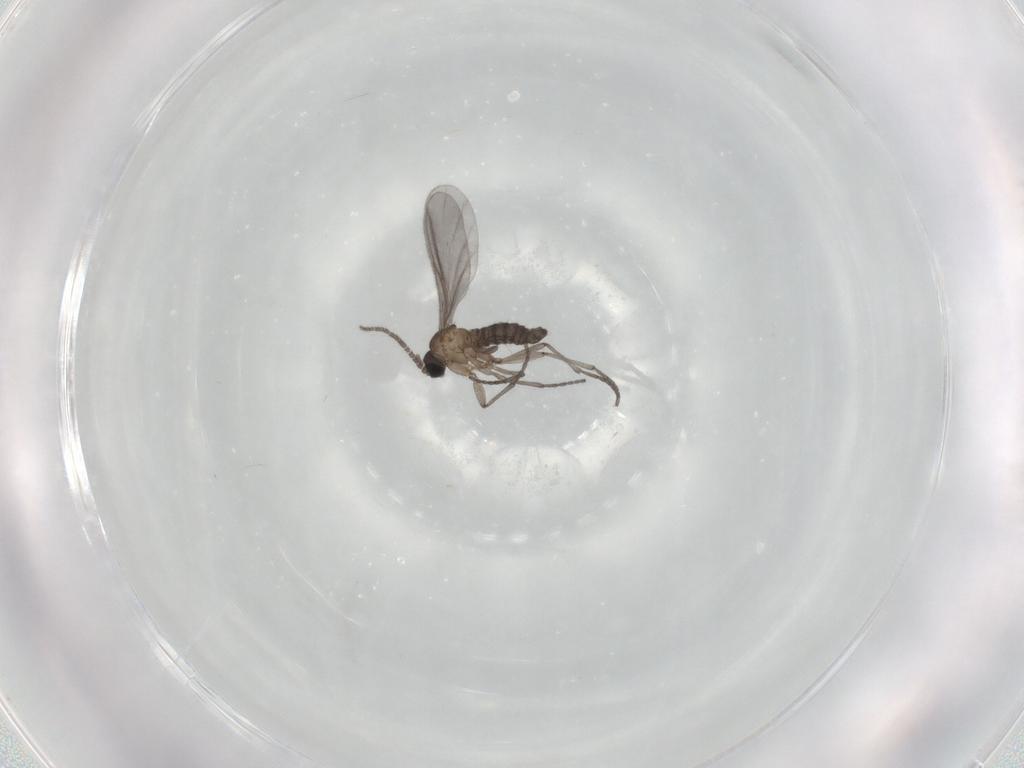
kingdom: Animalia
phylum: Arthropoda
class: Insecta
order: Diptera
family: Sciaridae
